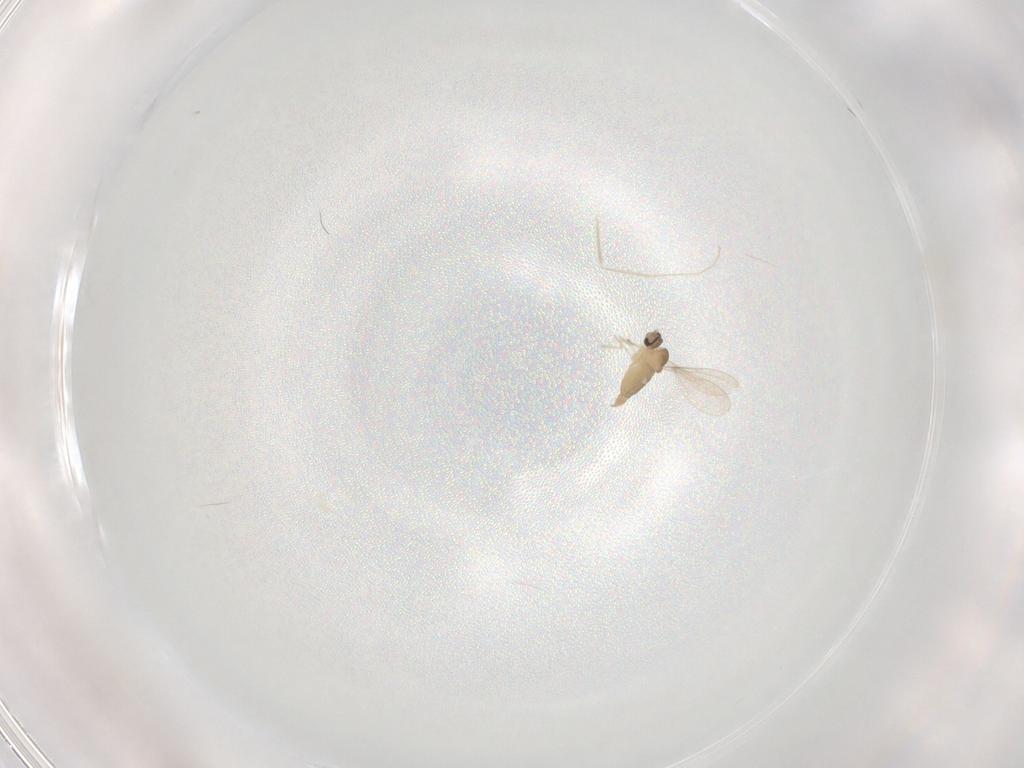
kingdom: Animalia
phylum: Arthropoda
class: Insecta
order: Diptera
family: Cecidomyiidae
